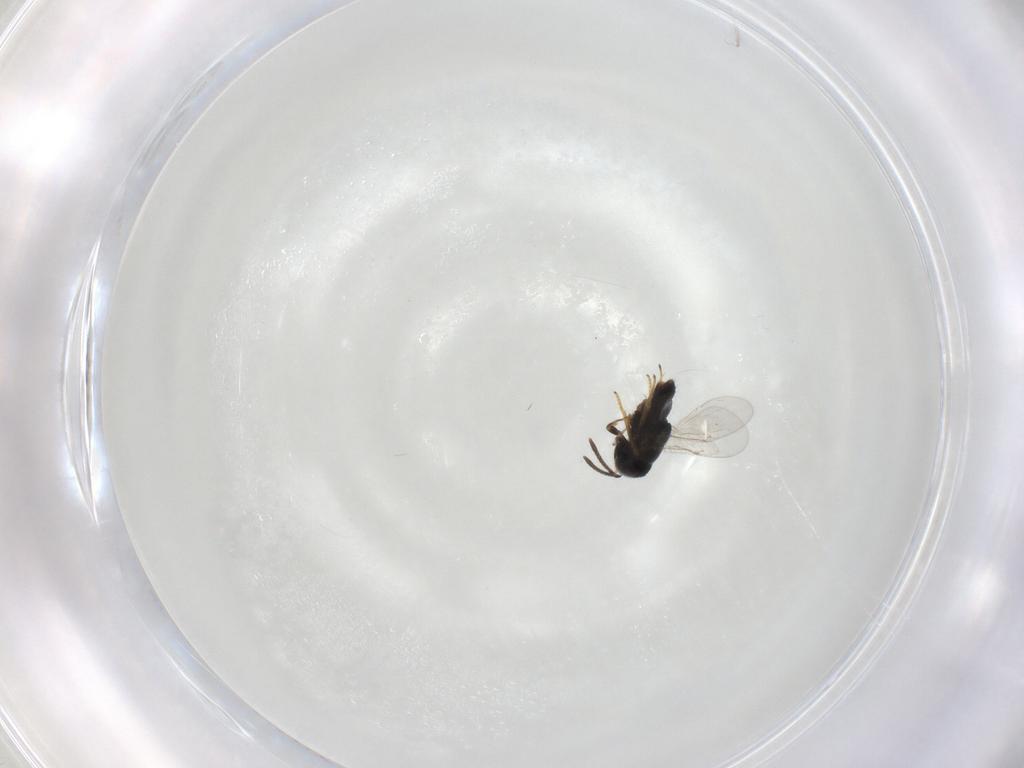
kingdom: Animalia
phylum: Arthropoda
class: Insecta
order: Hymenoptera
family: Encyrtidae
